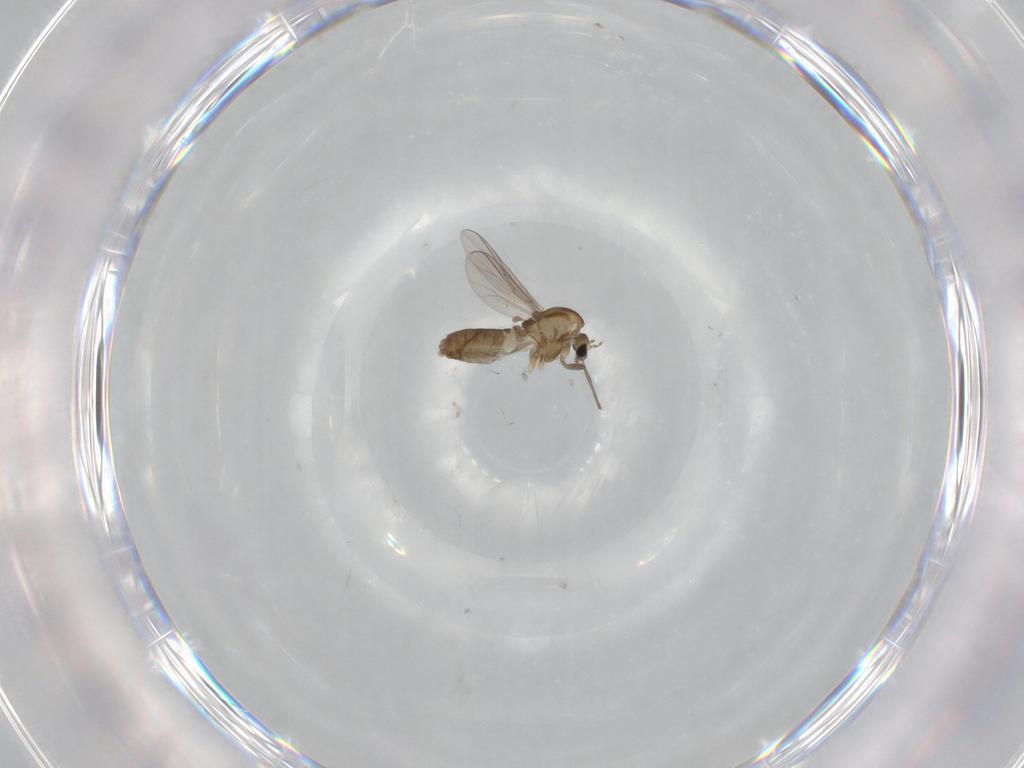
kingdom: Animalia
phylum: Arthropoda
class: Insecta
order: Diptera
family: Chironomidae
